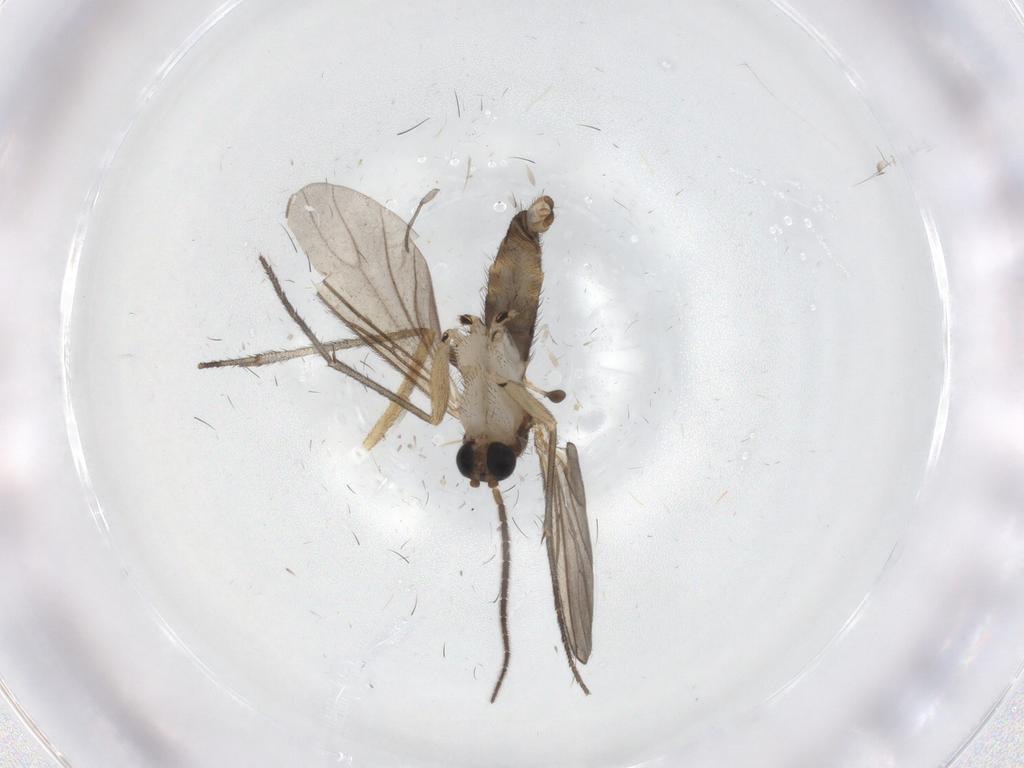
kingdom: Animalia
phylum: Arthropoda
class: Insecta
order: Diptera
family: Sciaridae
